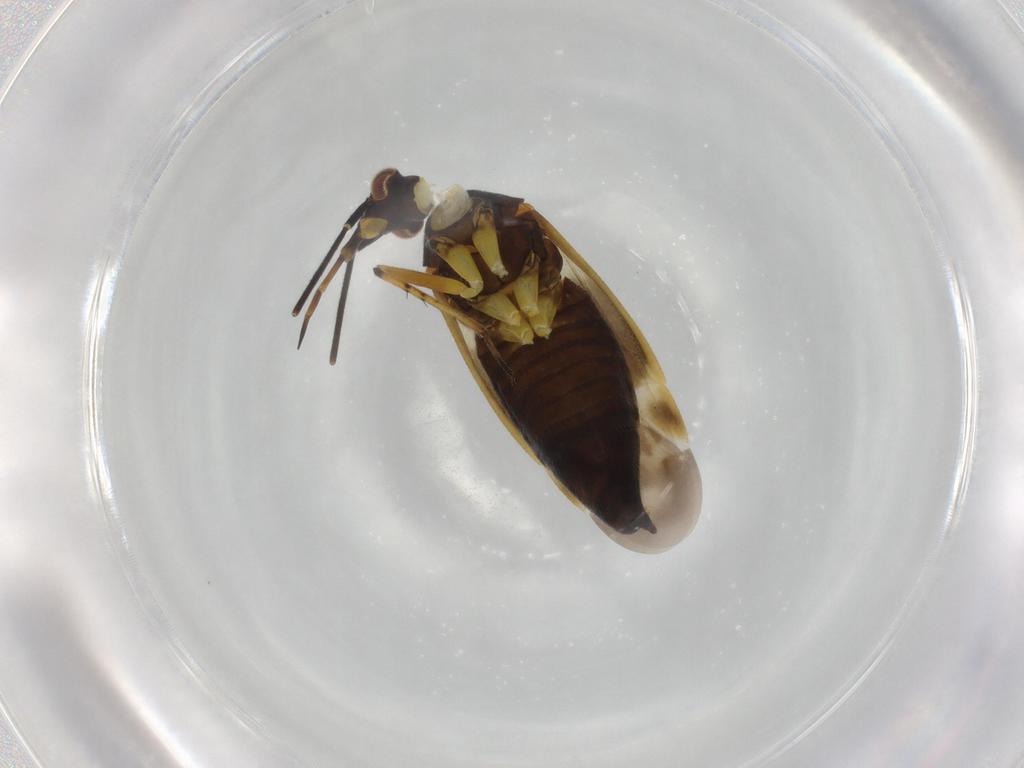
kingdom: Animalia
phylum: Arthropoda
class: Insecta
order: Hemiptera
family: Miridae
